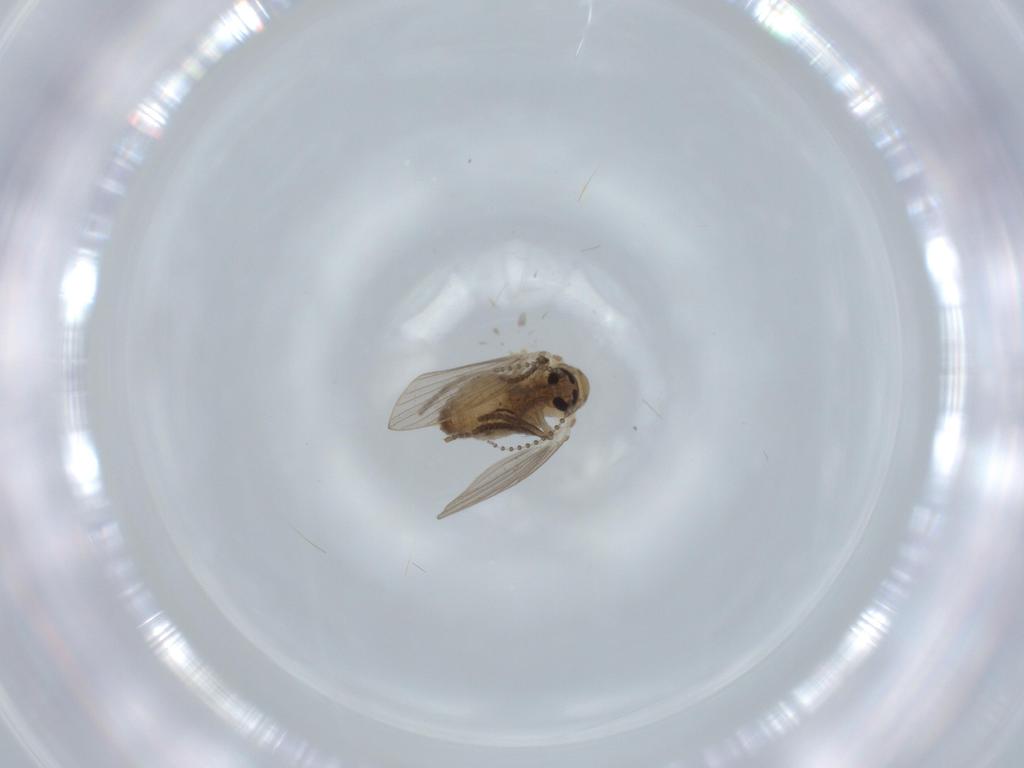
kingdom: Animalia
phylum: Arthropoda
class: Insecta
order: Diptera
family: Psychodidae
